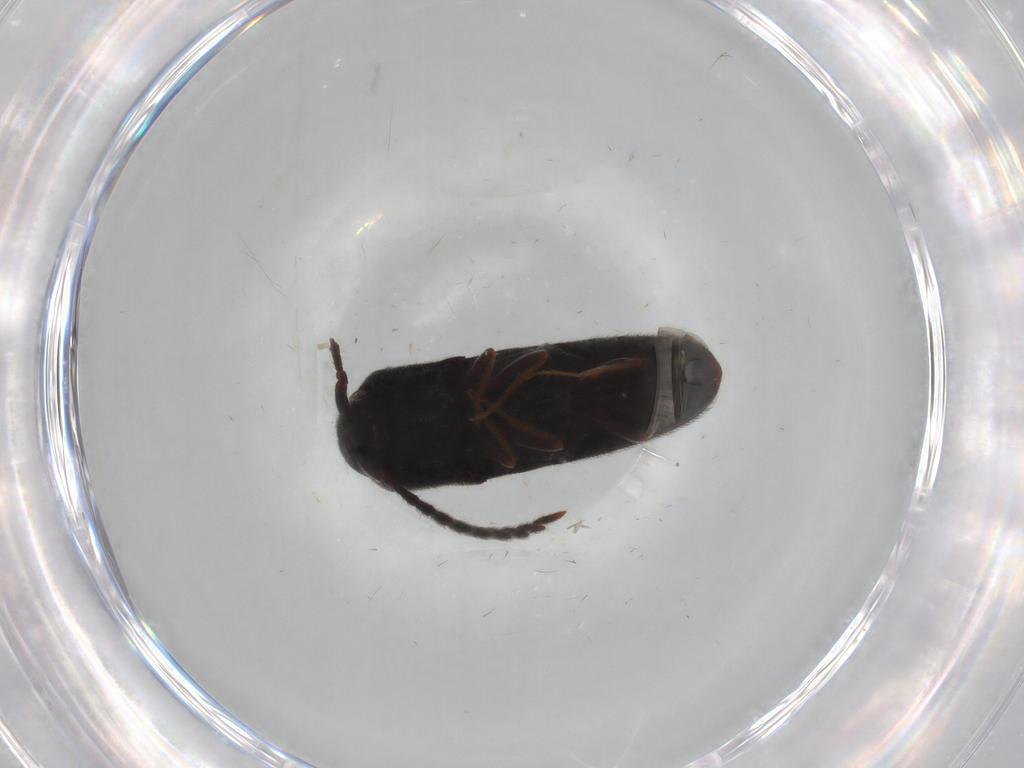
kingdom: Animalia
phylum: Arthropoda
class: Insecta
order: Coleoptera
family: Eucnemidae
